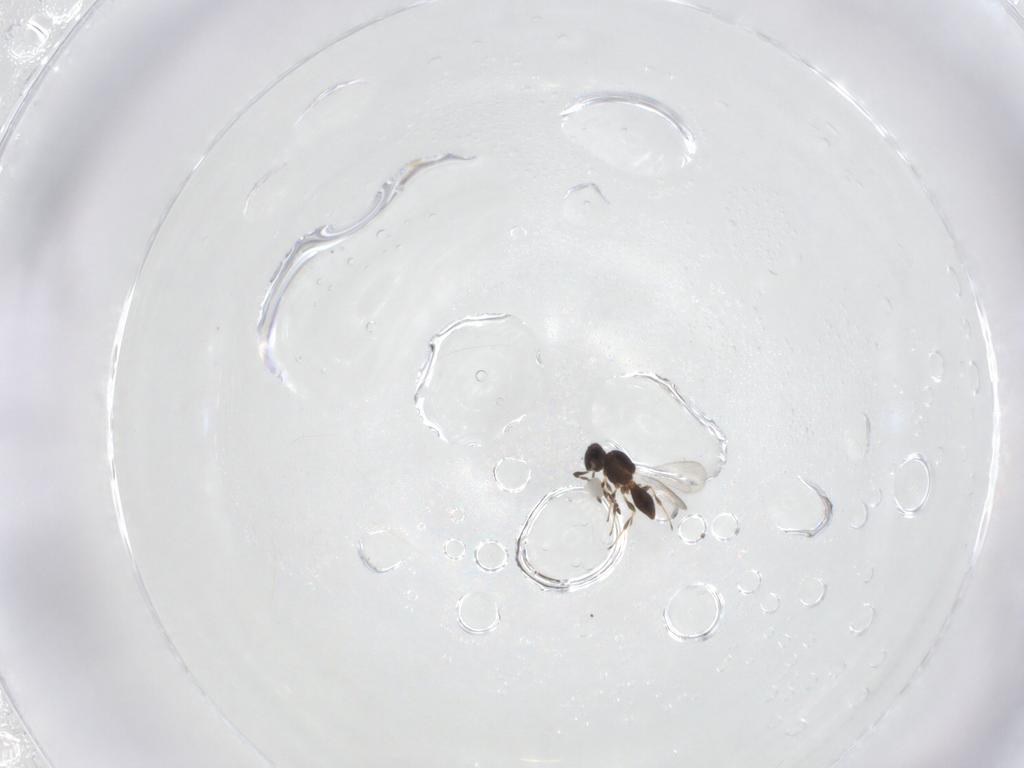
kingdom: Animalia
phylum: Arthropoda
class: Insecta
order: Hymenoptera
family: Platygastridae
